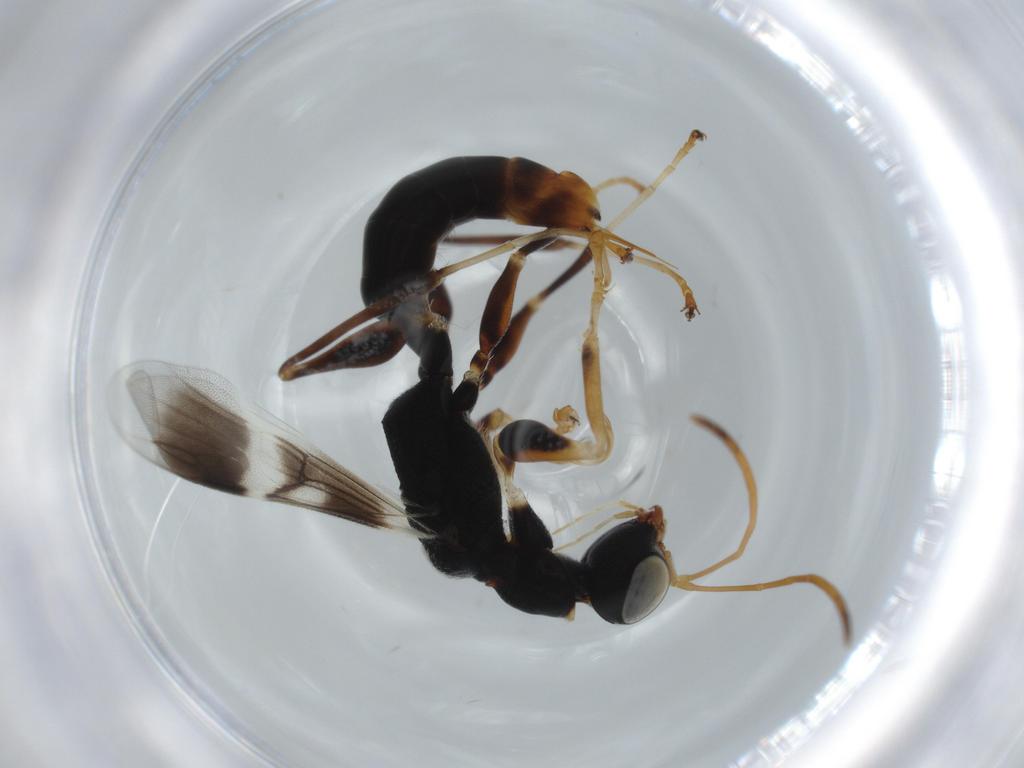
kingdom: Animalia
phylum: Arthropoda
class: Insecta
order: Hymenoptera
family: Dryinidae
